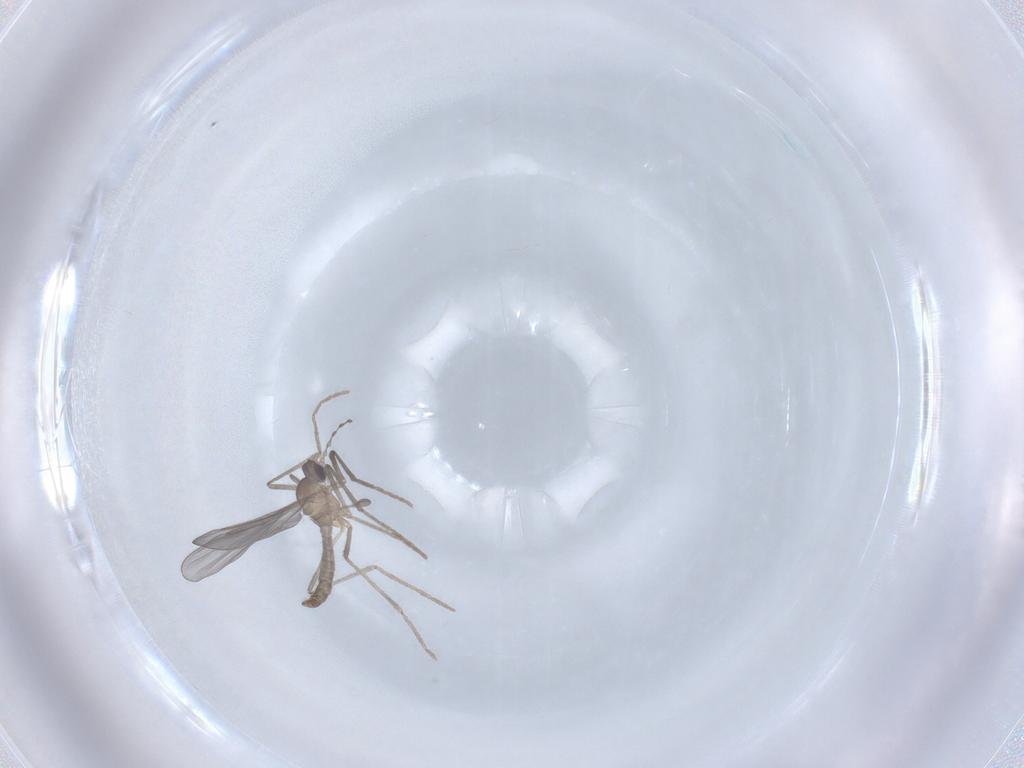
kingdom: Animalia
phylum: Arthropoda
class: Insecta
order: Diptera
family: Cecidomyiidae
